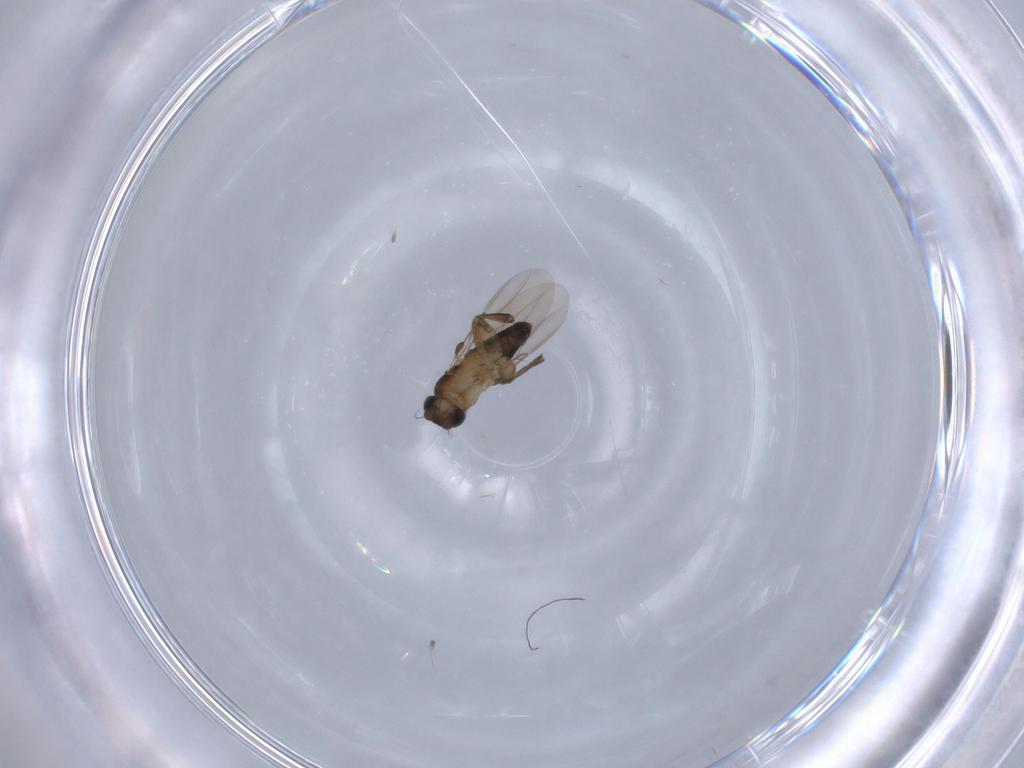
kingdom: Animalia
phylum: Arthropoda
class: Insecta
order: Diptera
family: Phoridae
